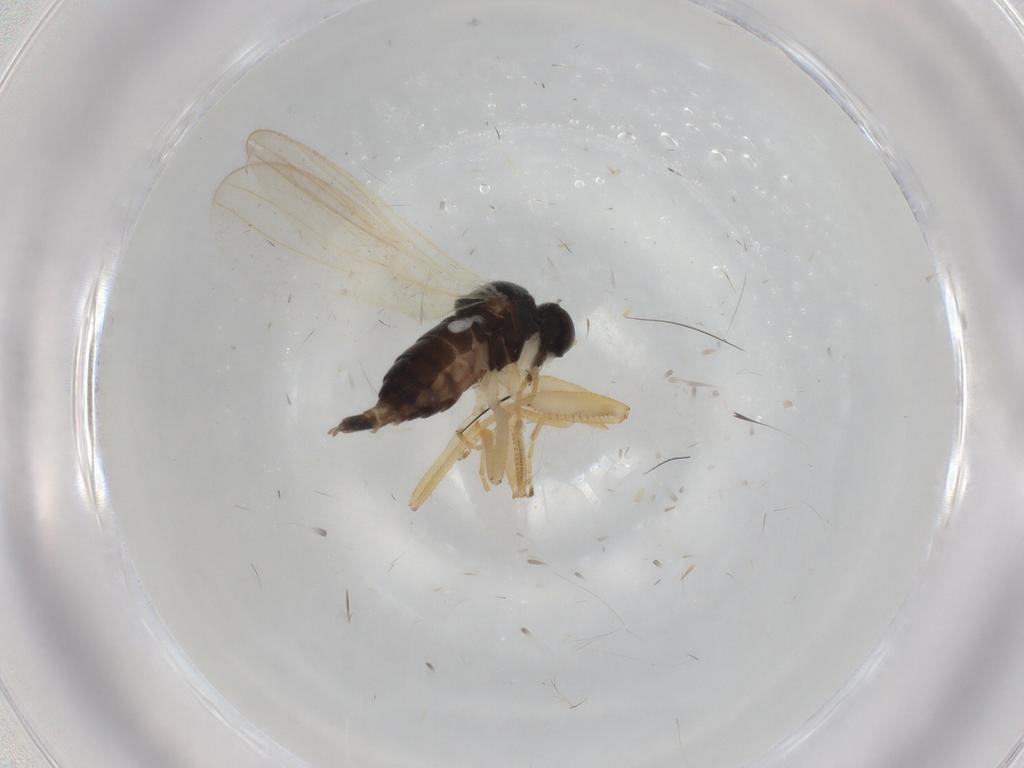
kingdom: Animalia
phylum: Arthropoda
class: Insecta
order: Diptera
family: Hybotidae
